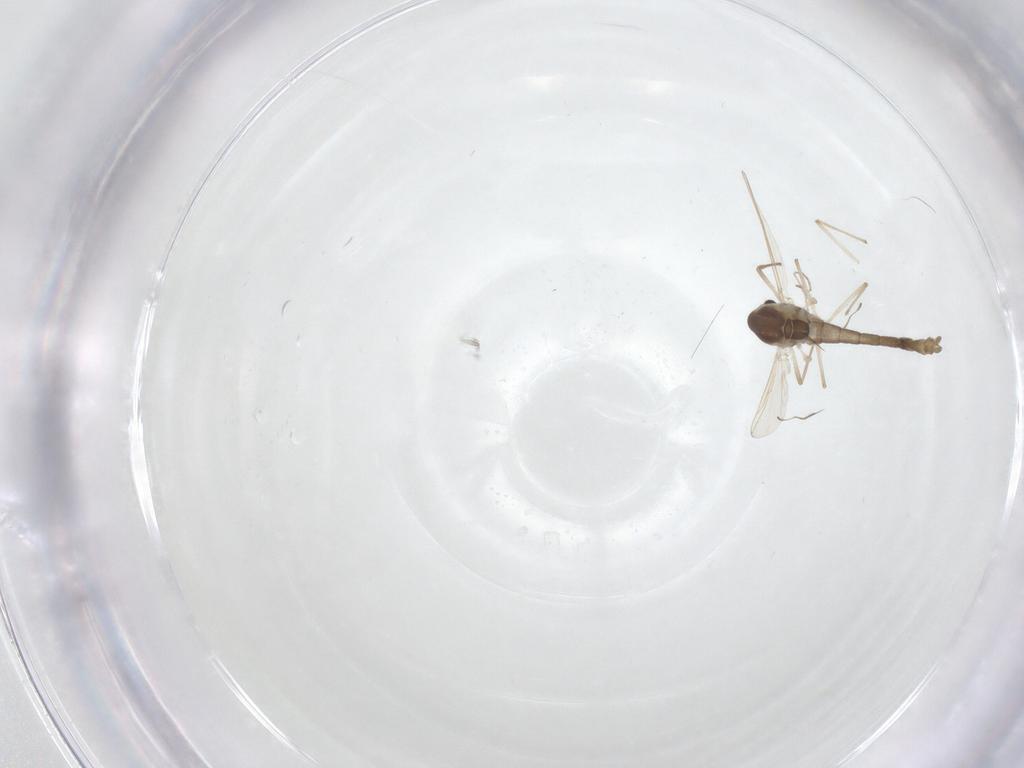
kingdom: Animalia
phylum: Arthropoda
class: Insecta
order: Diptera
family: Chironomidae
